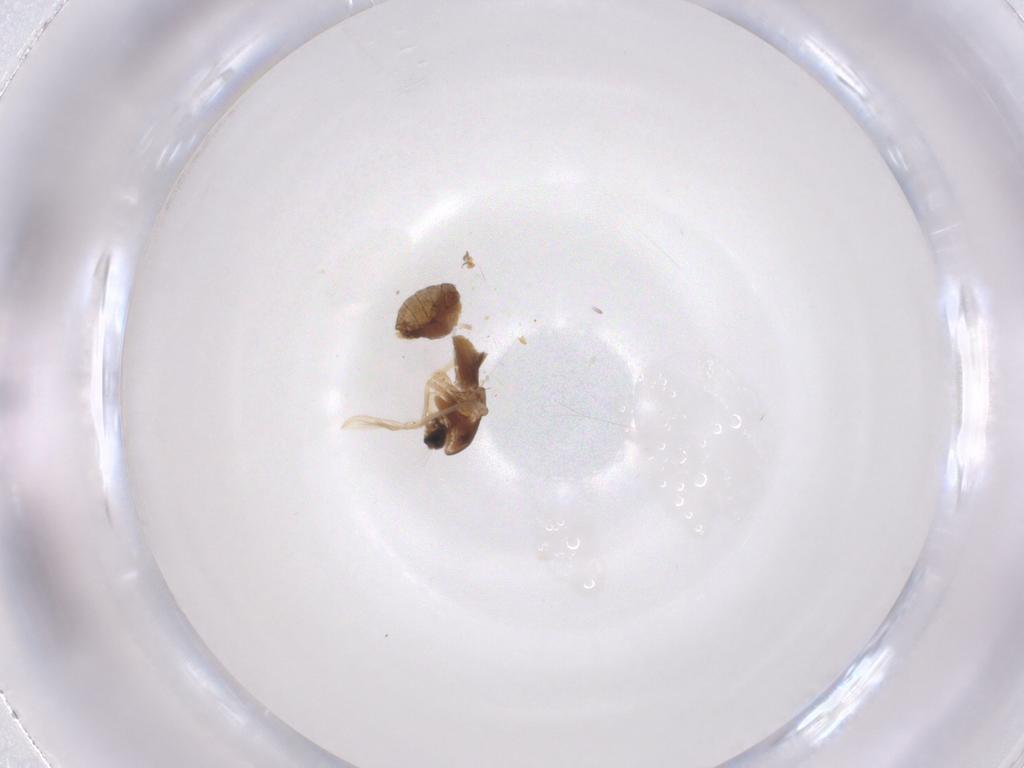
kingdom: Animalia
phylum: Arthropoda
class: Insecta
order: Diptera
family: Chironomidae
